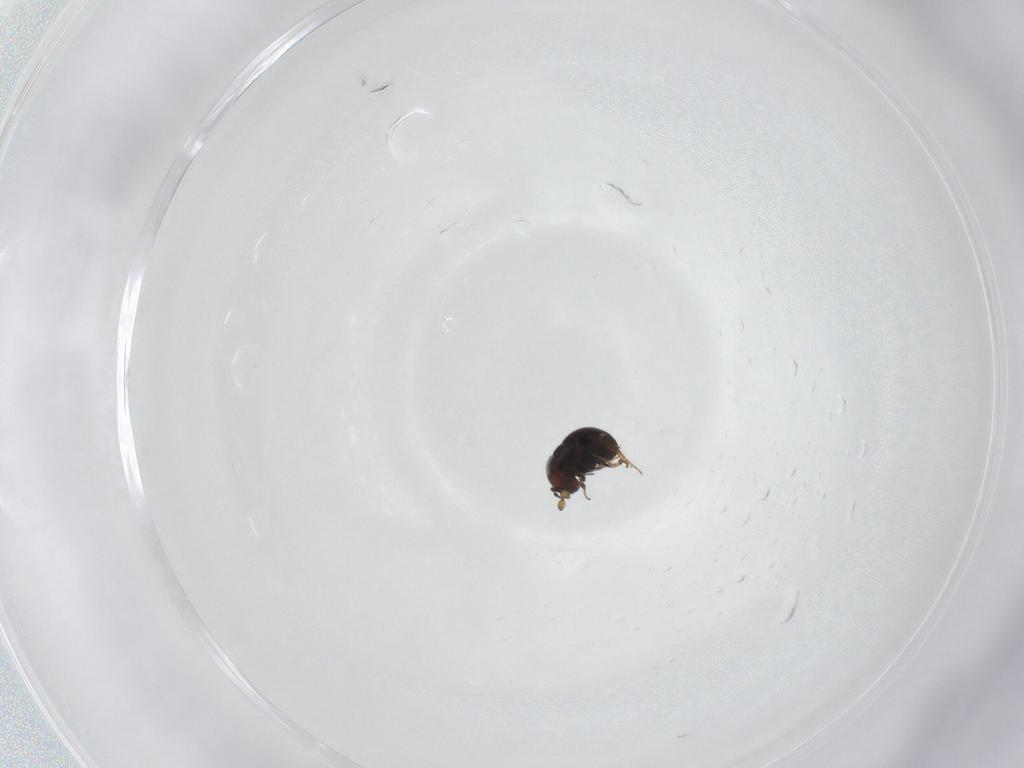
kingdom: Animalia
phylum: Arthropoda
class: Insecta
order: Hymenoptera
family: Scelionidae
